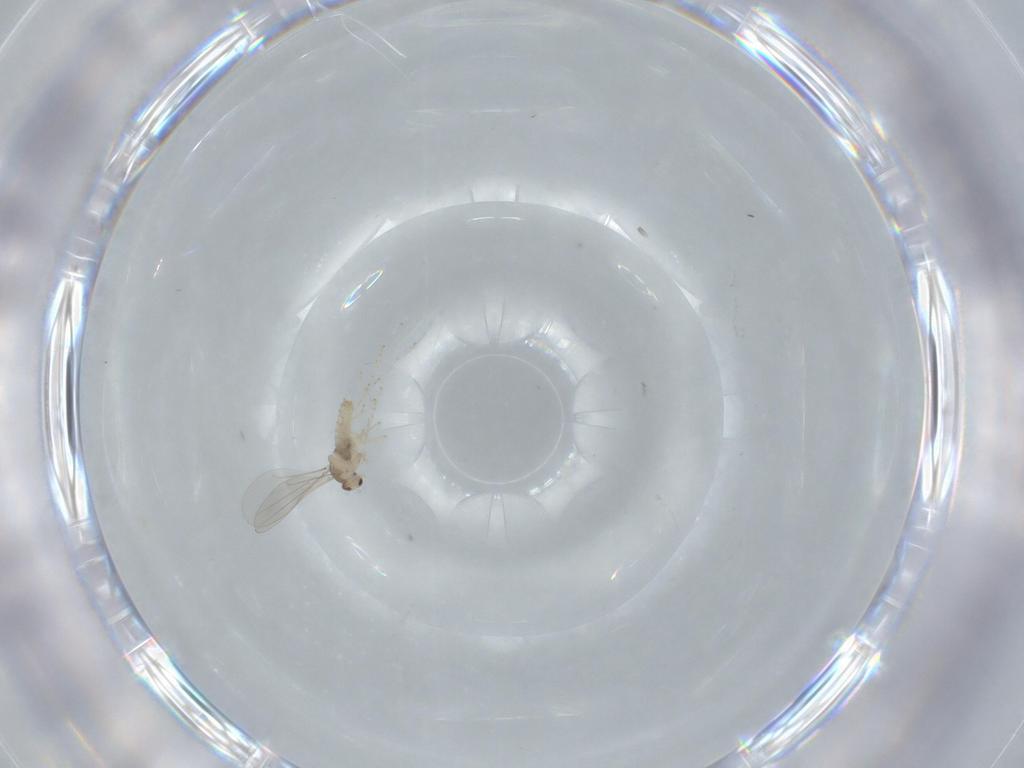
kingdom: Animalia
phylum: Arthropoda
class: Insecta
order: Diptera
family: Cecidomyiidae
